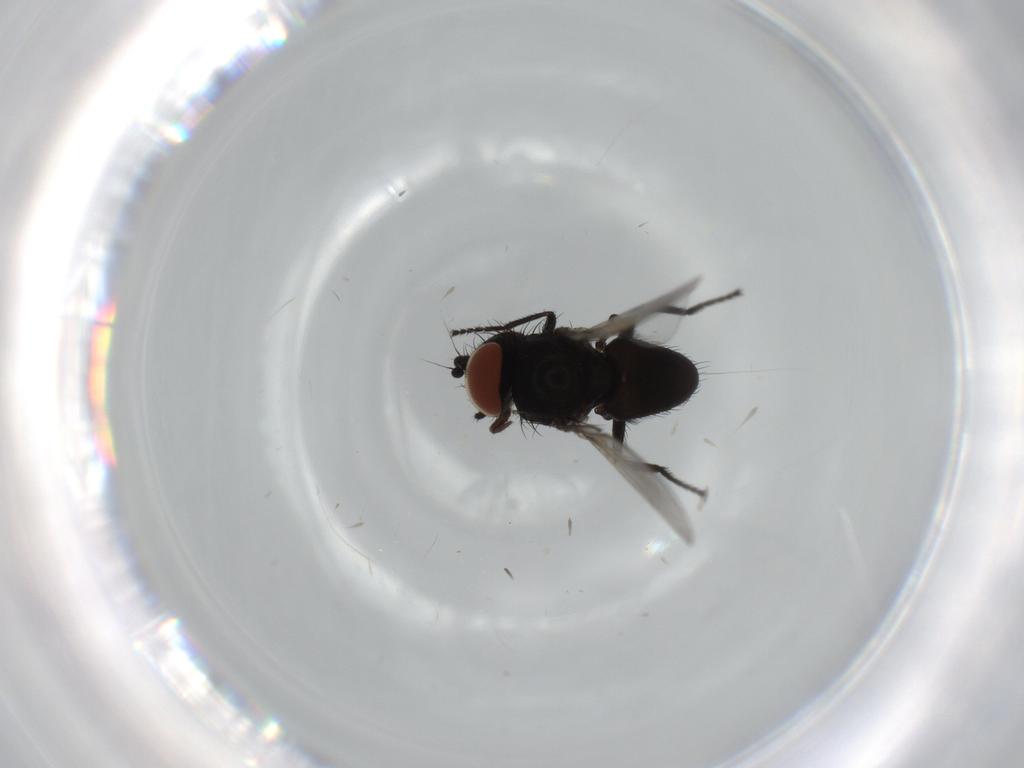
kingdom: Animalia
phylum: Arthropoda
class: Insecta
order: Diptera
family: Milichiidae
